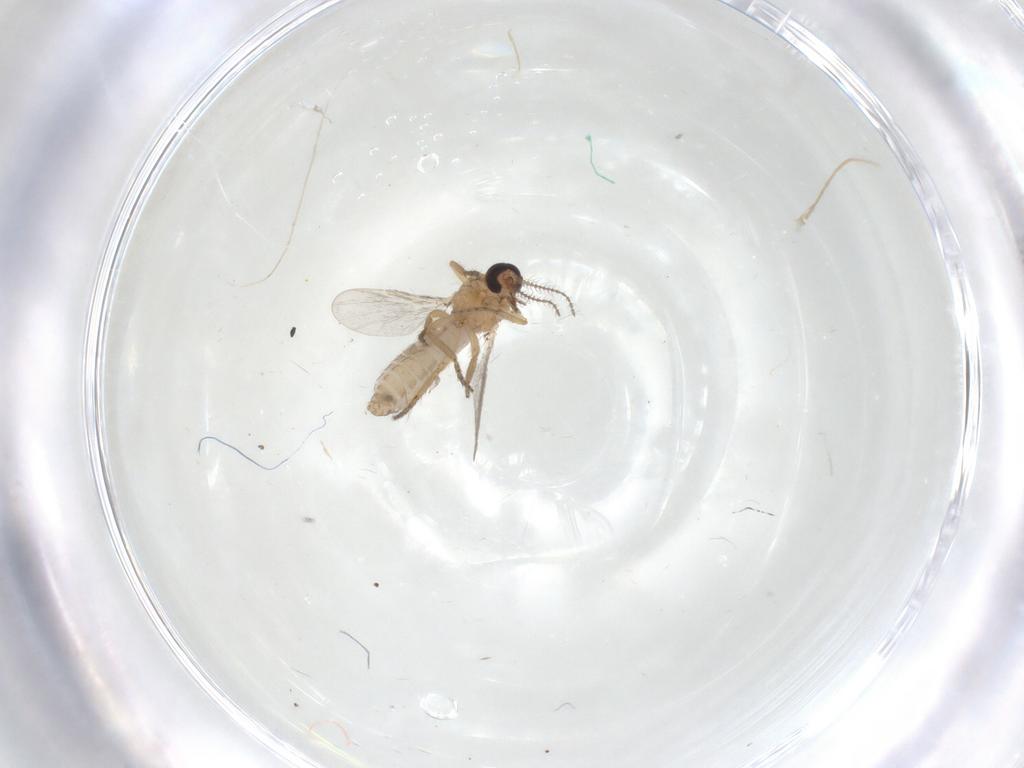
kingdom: Animalia
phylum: Arthropoda
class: Insecta
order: Diptera
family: Ceratopogonidae
